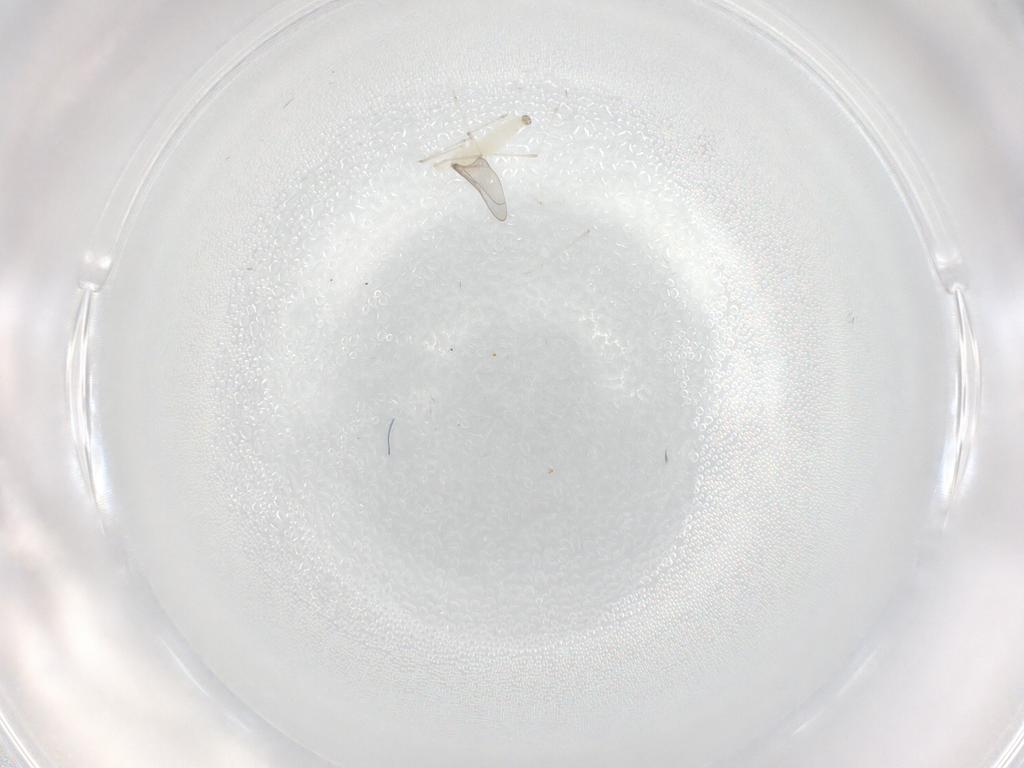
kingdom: Animalia
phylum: Arthropoda
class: Insecta
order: Diptera
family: Cecidomyiidae
